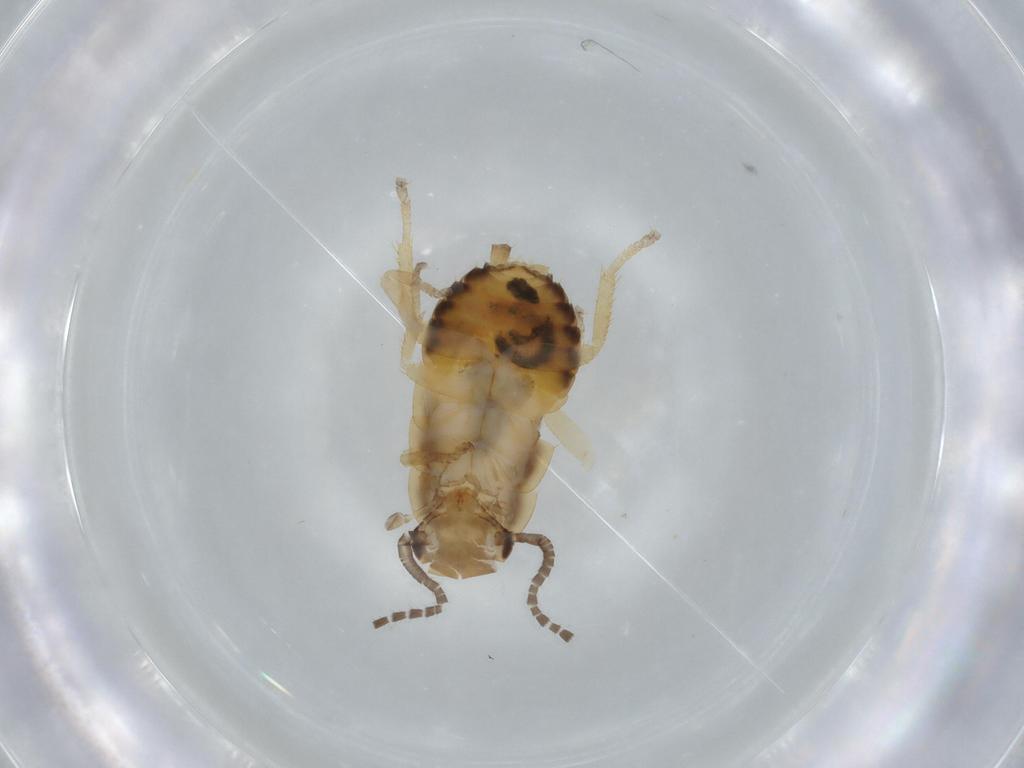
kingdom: Animalia
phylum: Arthropoda
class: Insecta
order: Blattodea
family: Ectobiidae
